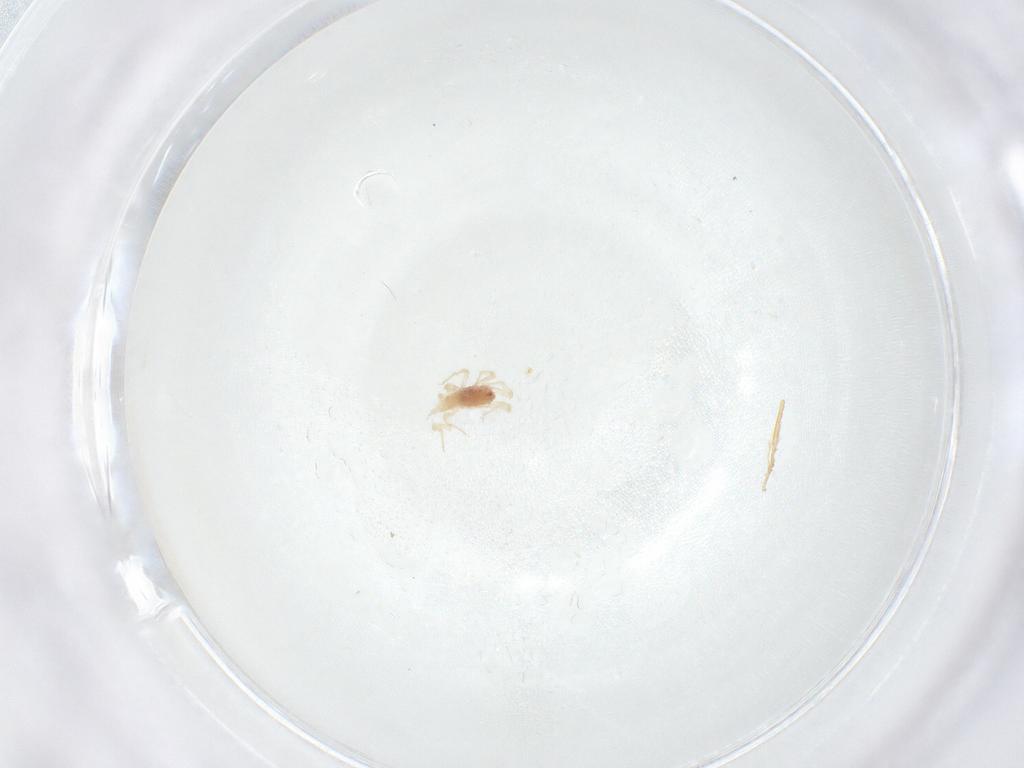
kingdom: Animalia
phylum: Arthropoda
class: Arachnida
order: Trombidiformes
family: Bdellidae
